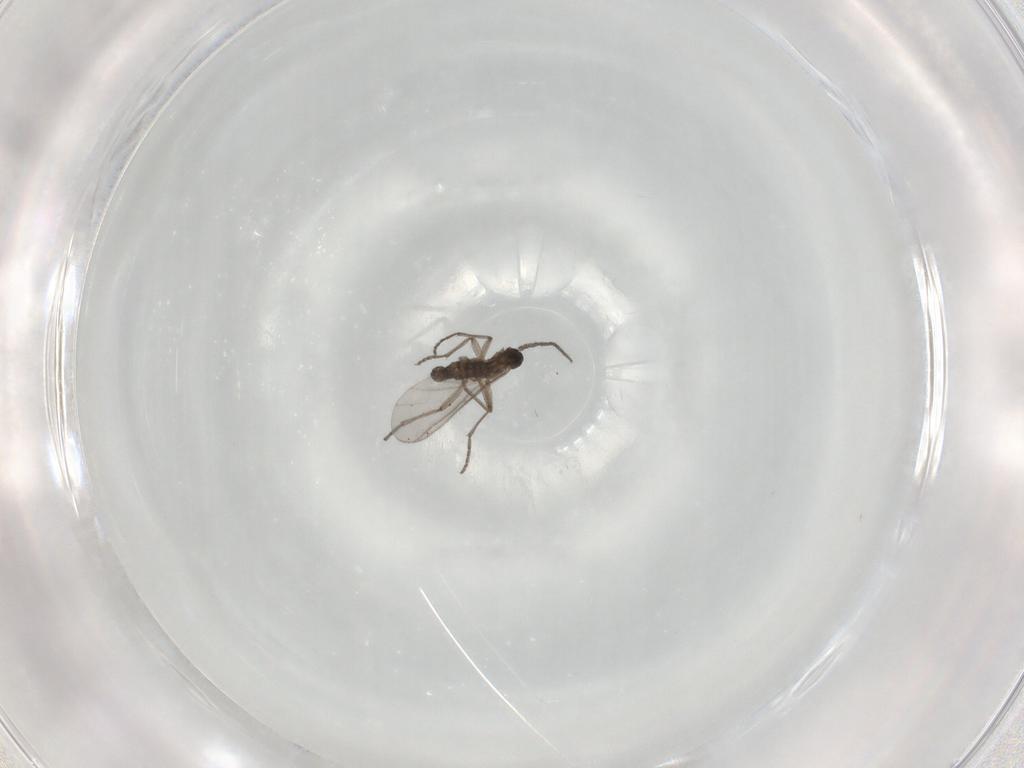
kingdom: Animalia
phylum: Arthropoda
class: Insecta
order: Diptera
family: Sciaridae
